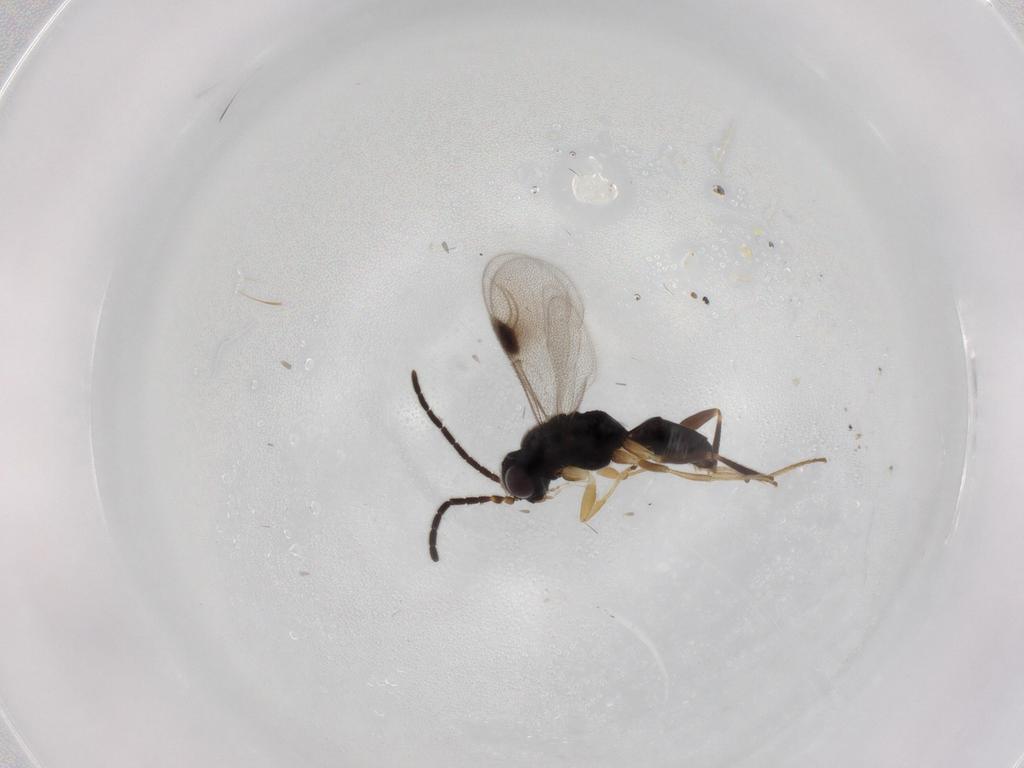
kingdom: Animalia
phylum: Arthropoda
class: Insecta
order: Hymenoptera
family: Dryinidae
